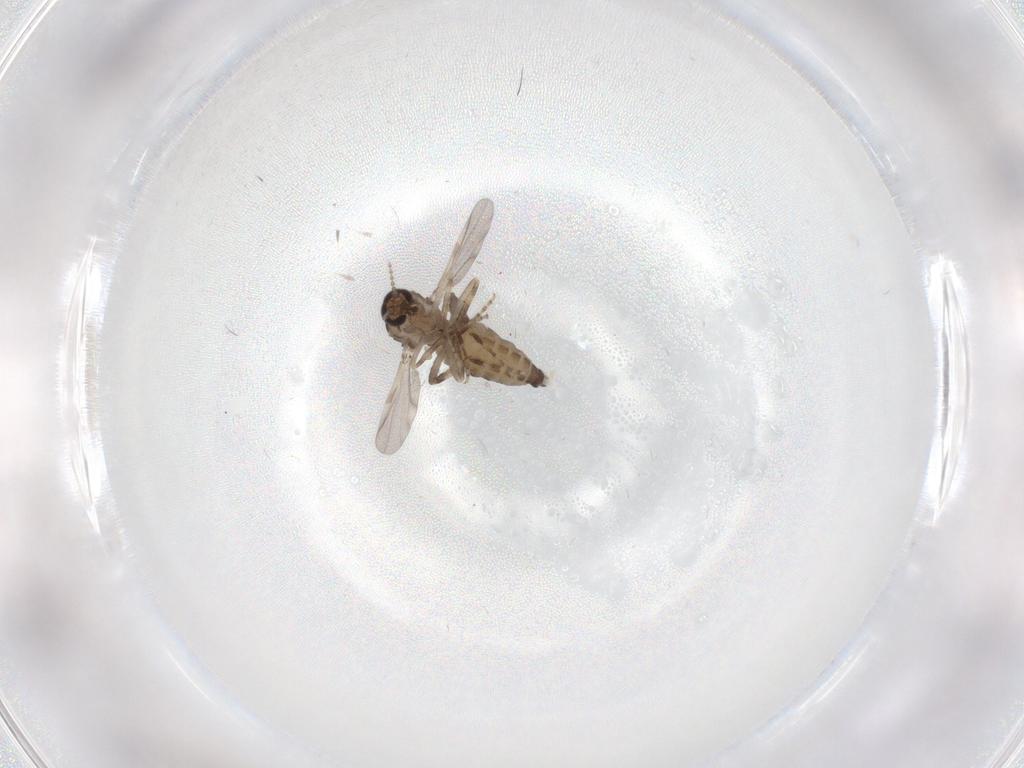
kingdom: Animalia
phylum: Arthropoda
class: Insecta
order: Diptera
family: Ceratopogonidae
